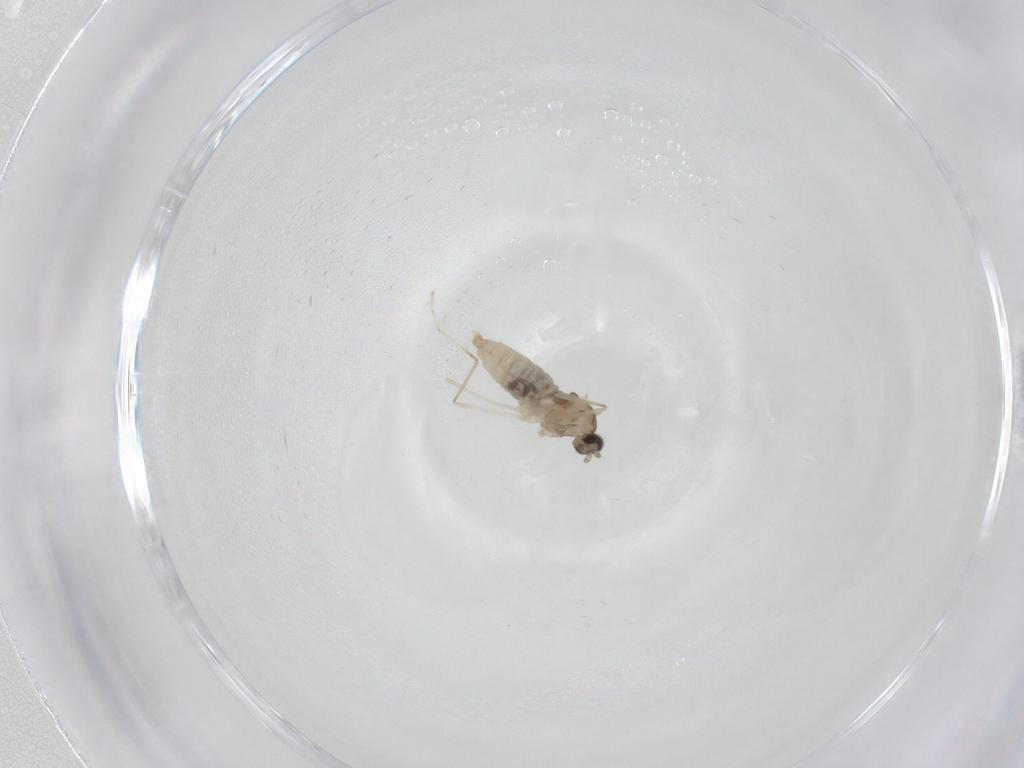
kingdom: Animalia
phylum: Arthropoda
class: Insecta
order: Diptera
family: Cecidomyiidae
